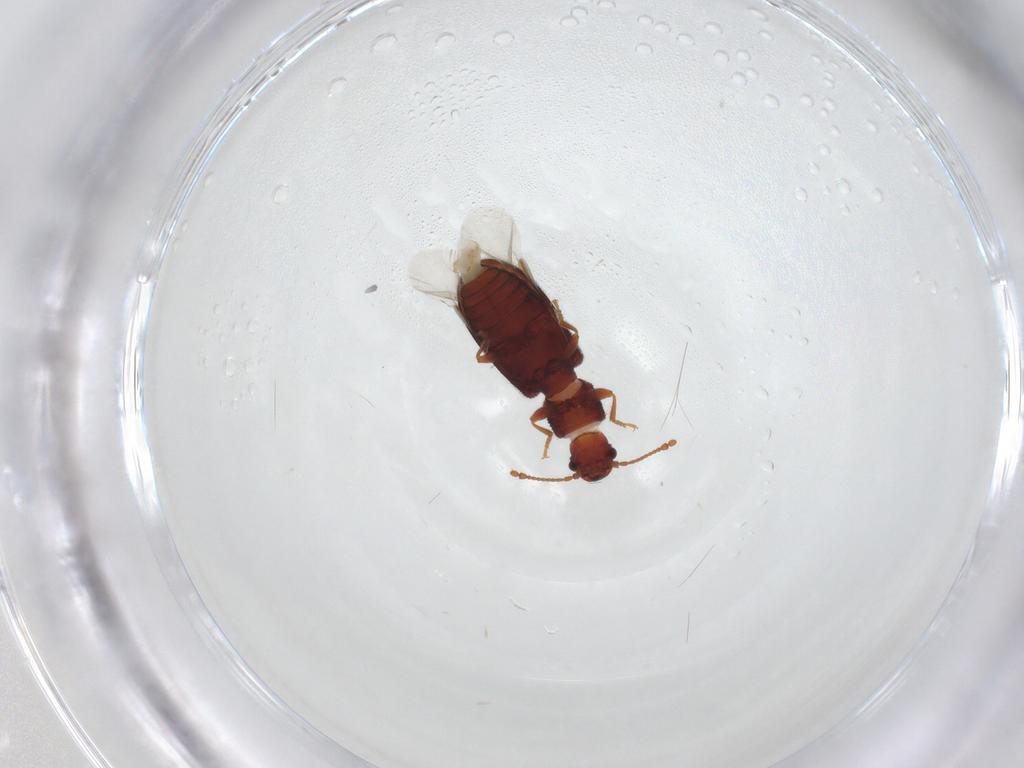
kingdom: Animalia
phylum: Arthropoda
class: Insecta
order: Coleoptera
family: Mycetophagidae
